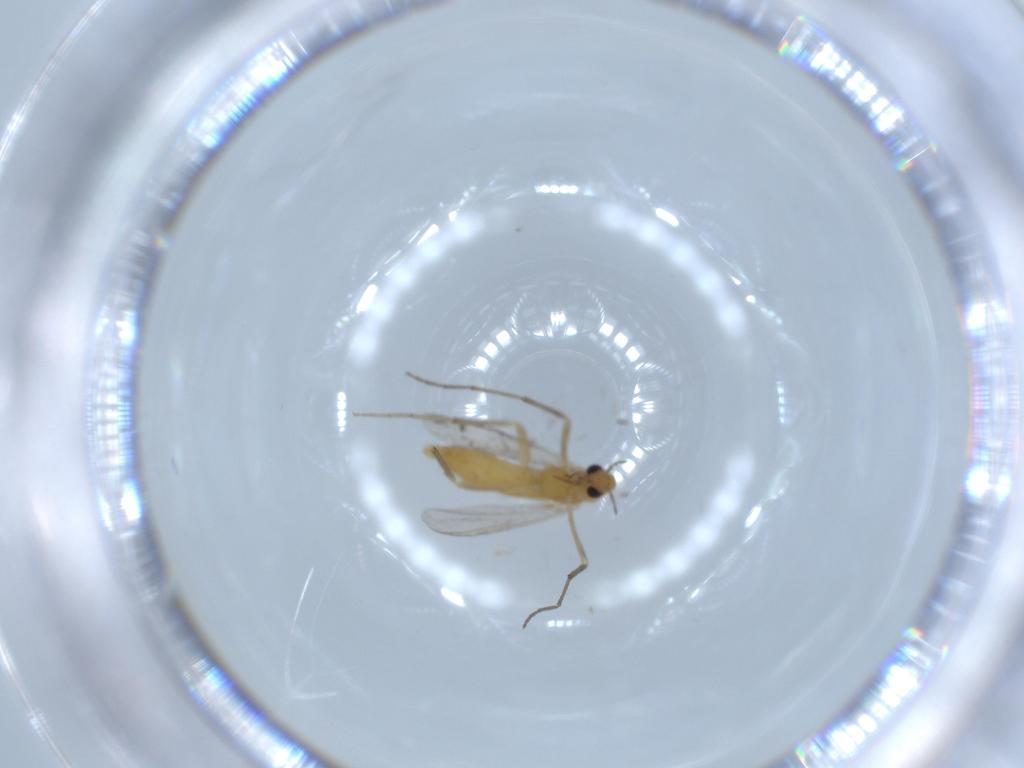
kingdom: Animalia
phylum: Arthropoda
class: Insecta
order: Diptera
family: Chironomidae
